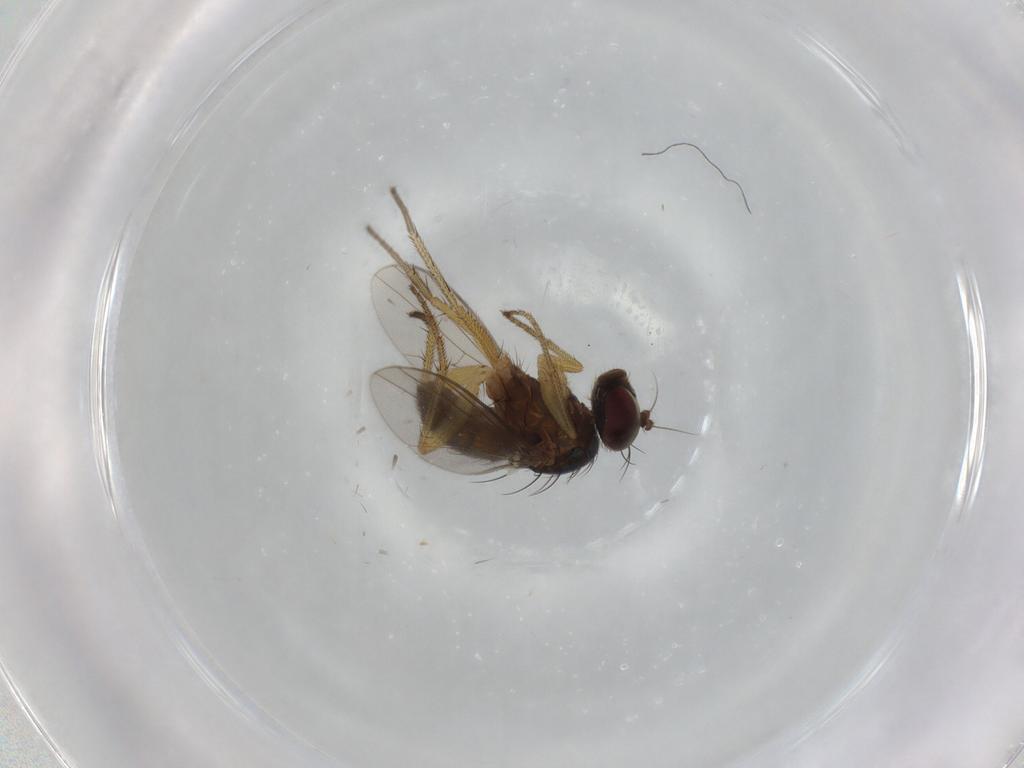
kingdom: Animalia
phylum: Arthropoda
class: Insecta
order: Diptera
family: Dolichopodidae
